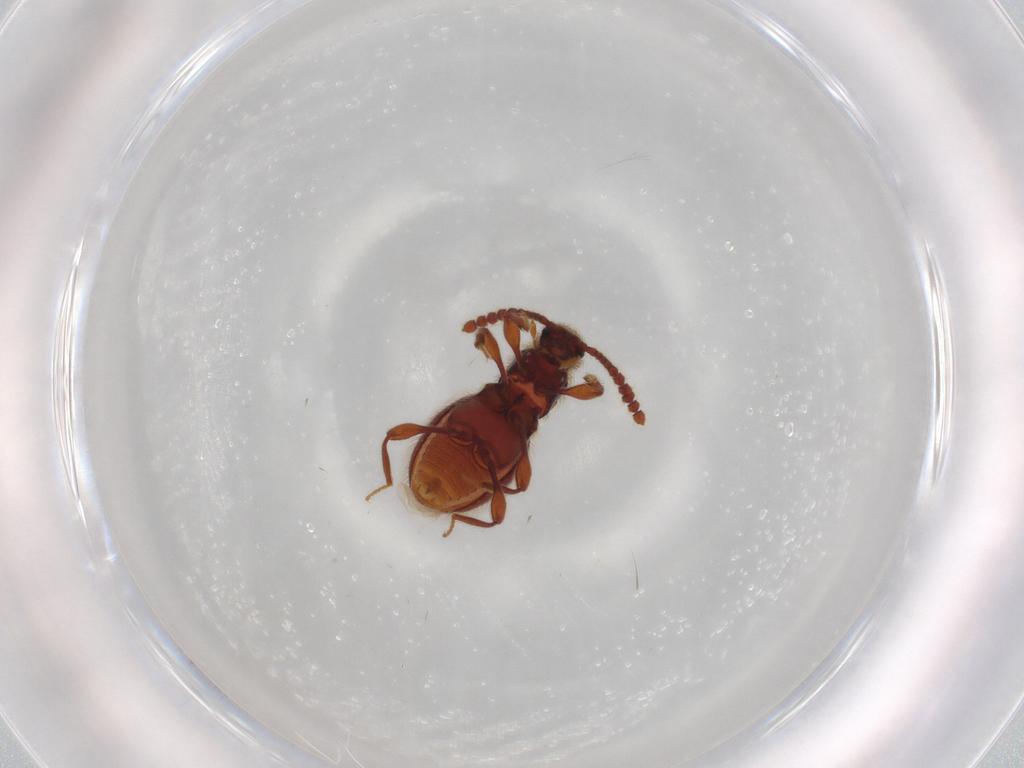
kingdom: Animalia
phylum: Arthropoda
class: Insecta
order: Coleoptera
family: Staphylinidae
